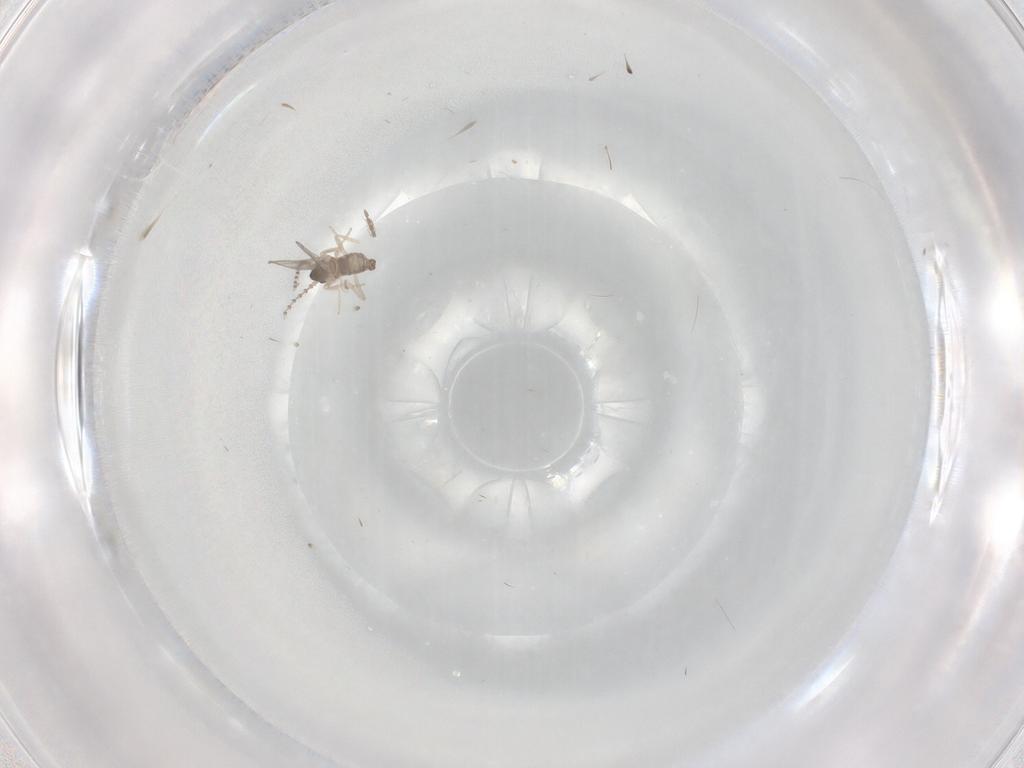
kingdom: Animalia
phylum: Arthropoda
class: Insecta
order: Diptera
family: Cecidomyiidae
